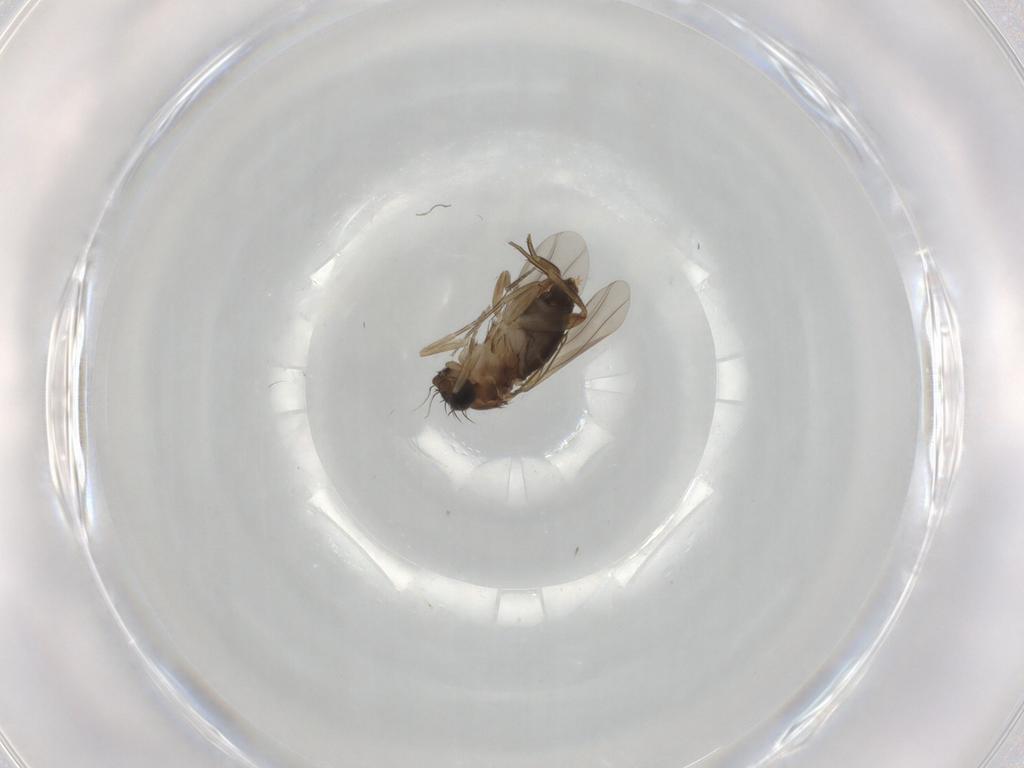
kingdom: Animalia
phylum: Arthropoda
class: Insecta
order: Diptera
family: Phoridae
